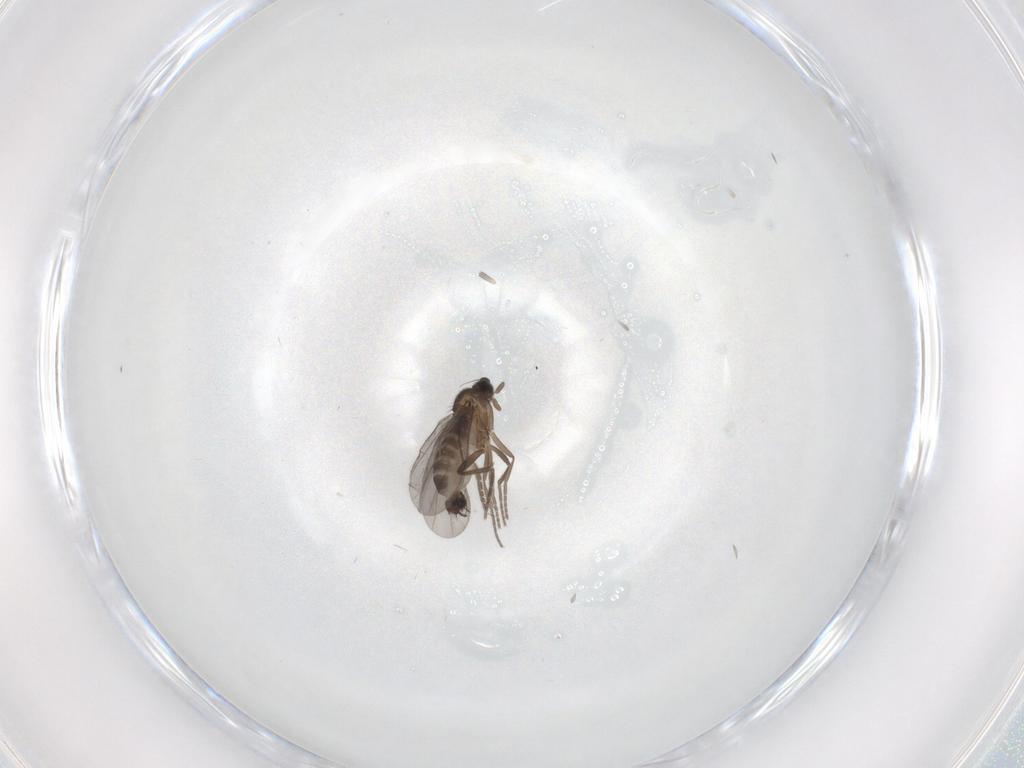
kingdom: Animalia
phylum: Arthropoda
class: Insecta
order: Diptera
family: Phoridae
